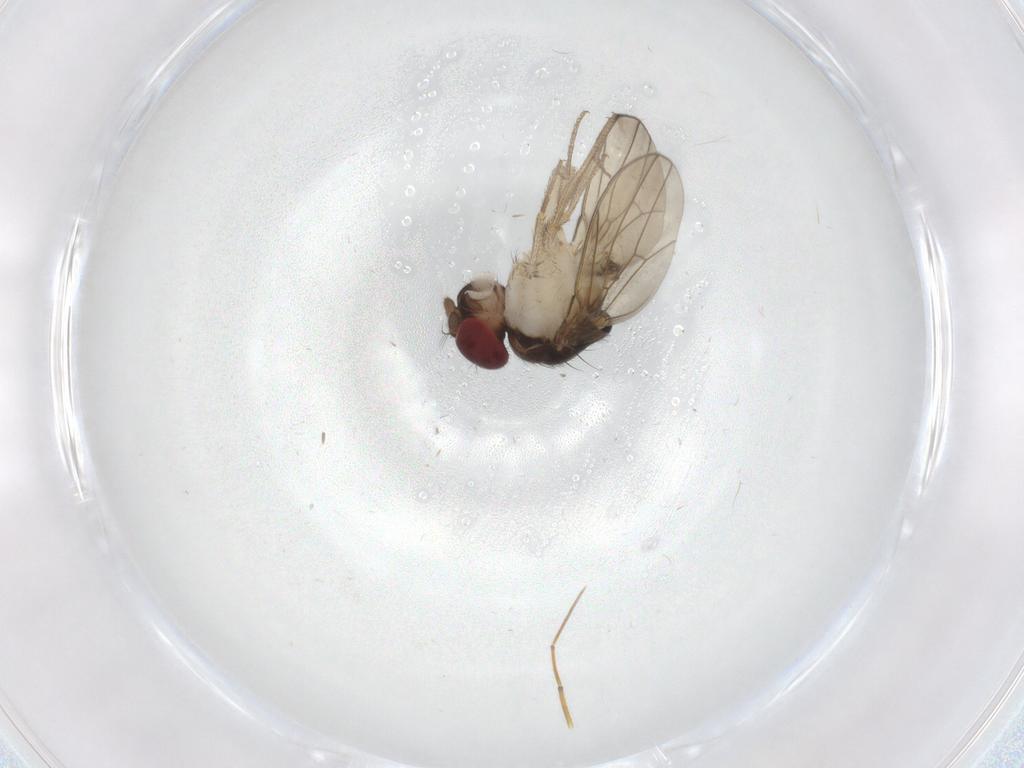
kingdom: Animalia
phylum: Arthropoda
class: Insecta
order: Diptera
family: Drosophilidae
